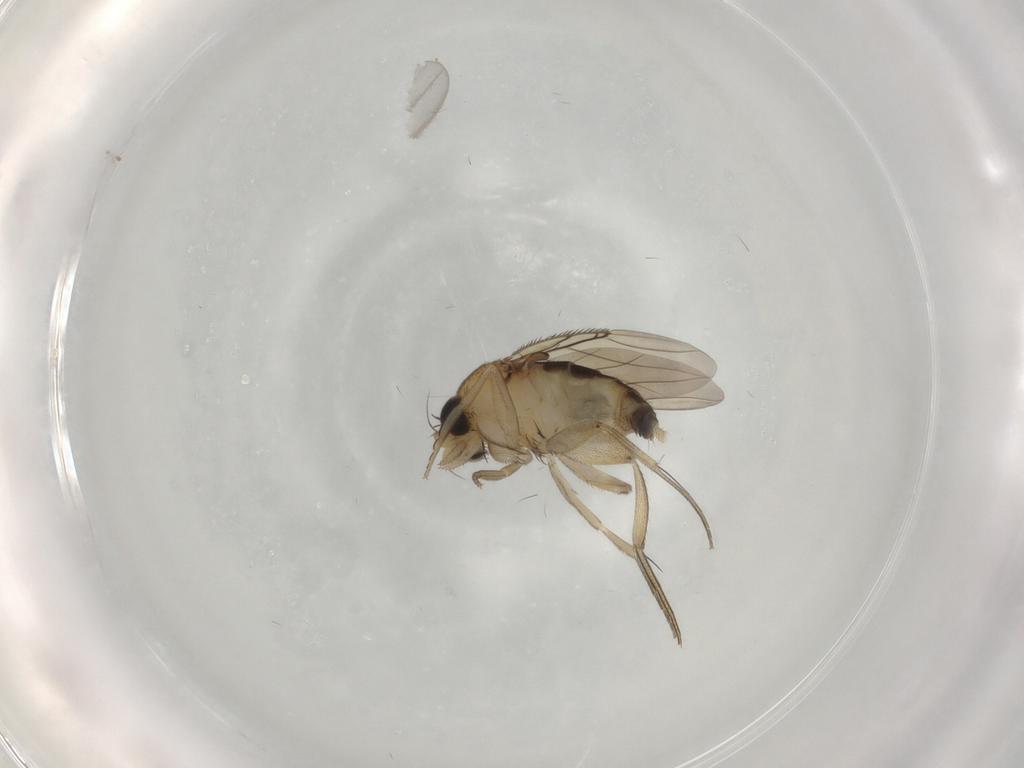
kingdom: Animalia
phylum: Arthropoda
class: Insecta
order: Diptera
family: Phoridae
